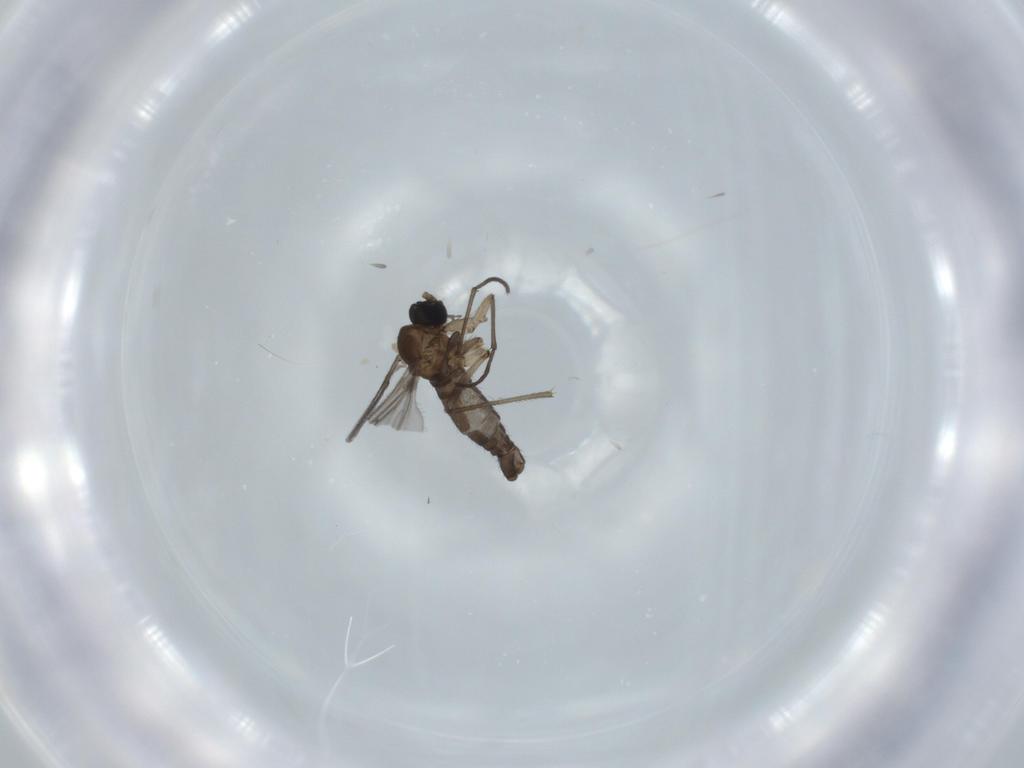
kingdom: Animalia
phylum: Arthropoda
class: Insecta
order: Diptera
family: Sciaridae
